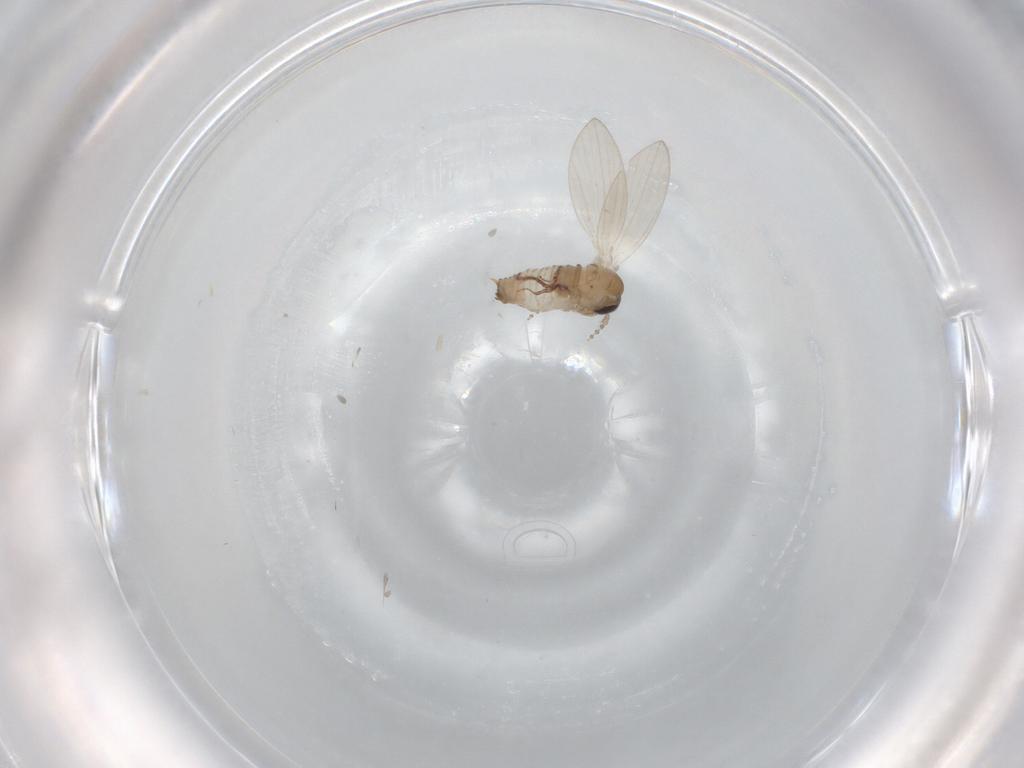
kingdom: Animalia
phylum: Arthropoda
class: Insecta
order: Diptera
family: Psychodidae
